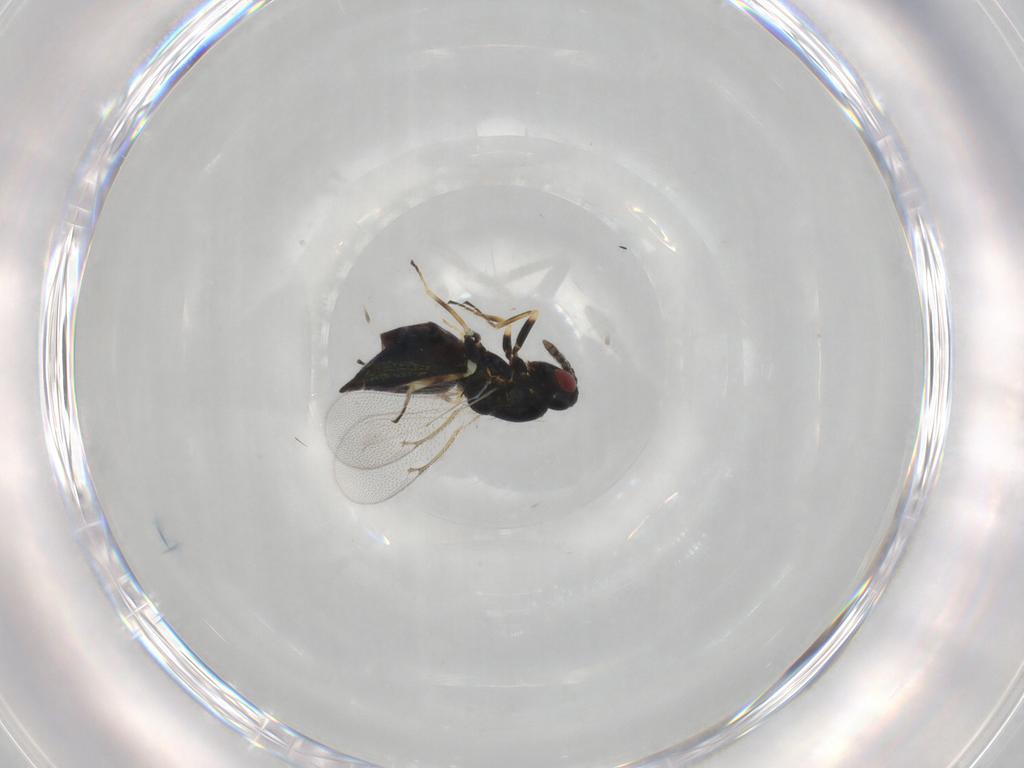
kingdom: Animalia
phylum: Arthropoda
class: Insecta
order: Hymenoptera
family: Eulophidae
